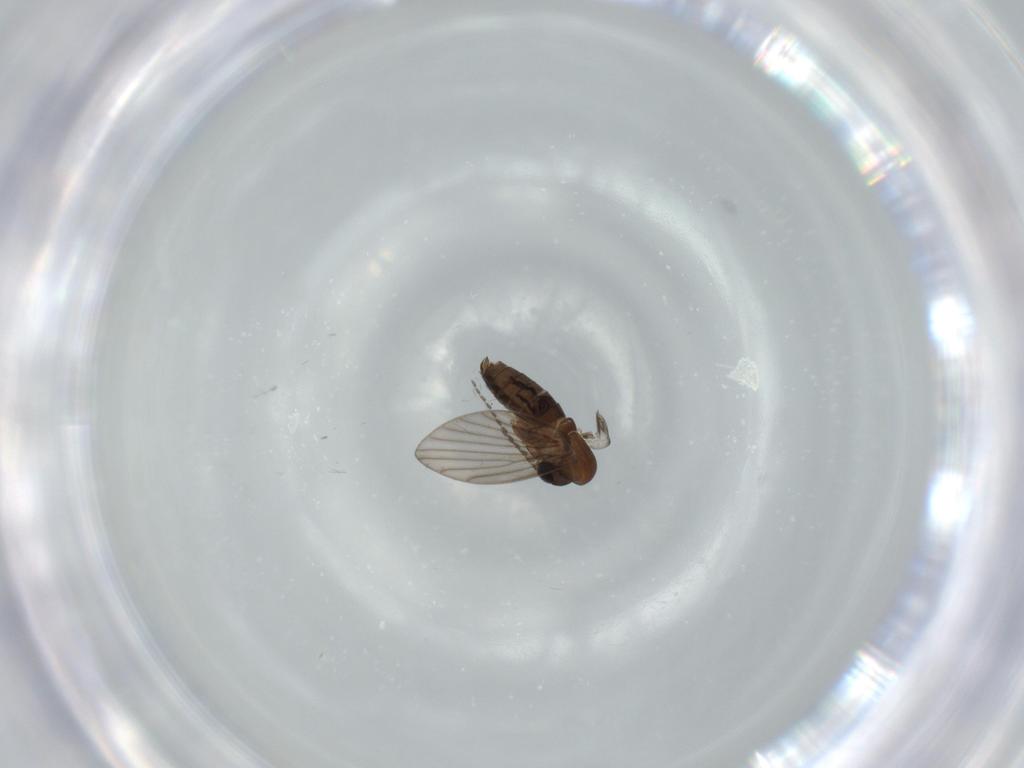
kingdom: Animalia
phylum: Arthropoda
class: Insecta
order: Diptera
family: Psychodidae
